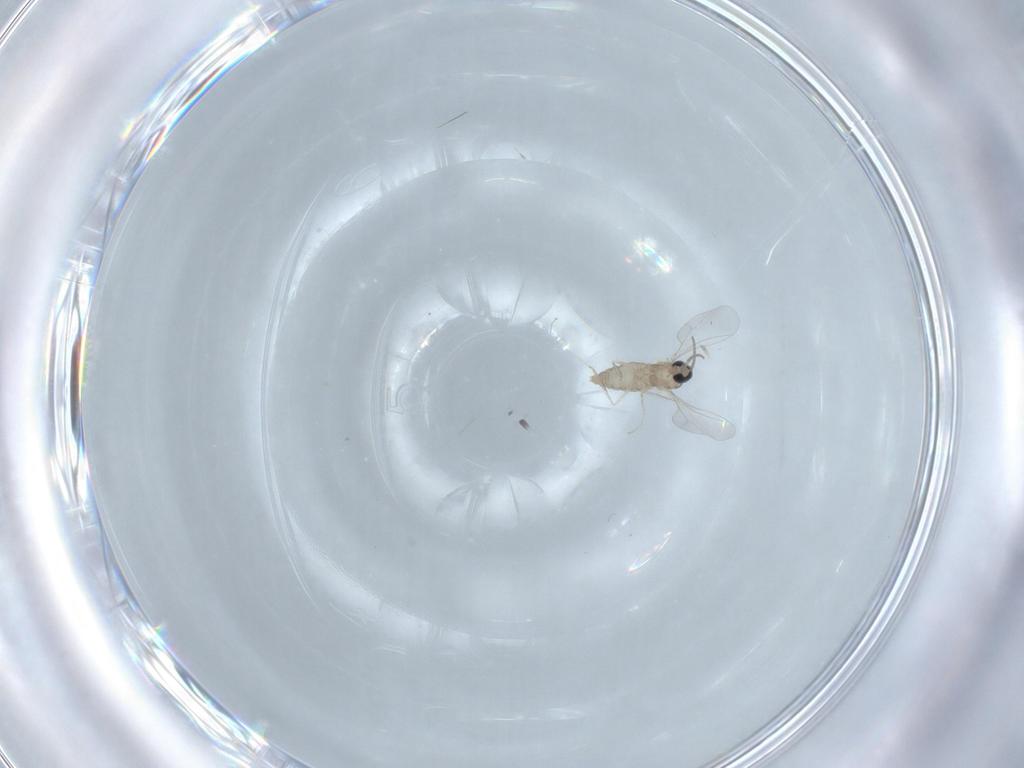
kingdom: Animalia
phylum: Arthropoda
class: Insecta
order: Diptera
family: Cecidomyiidae
